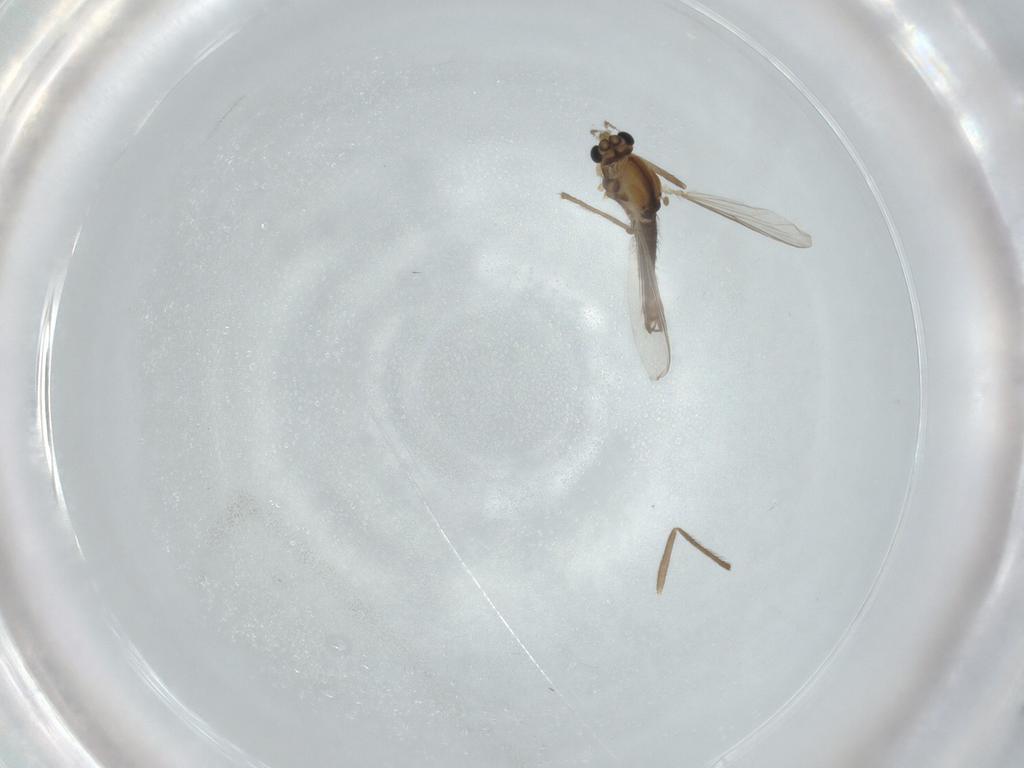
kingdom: Animalia
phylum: Arthropoda
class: Insecta
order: Diptera
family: Chironomidae
